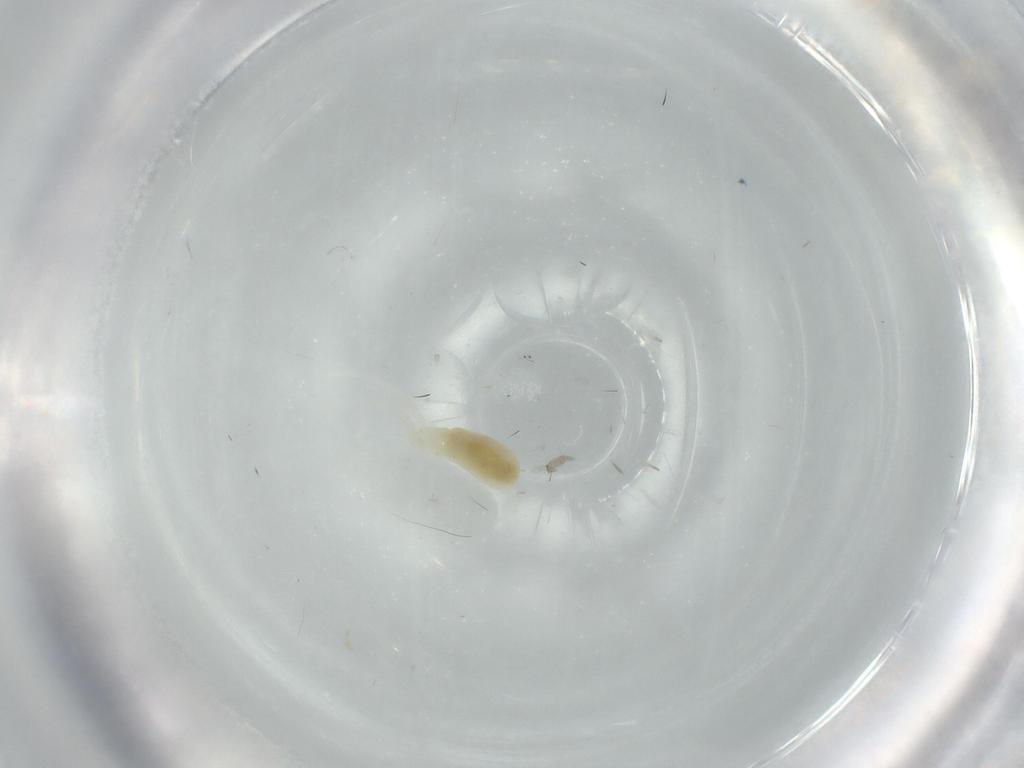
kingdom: Animalia
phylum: Arthropoda
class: Arachnida
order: Trombidiformes
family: Rhagidiidae
